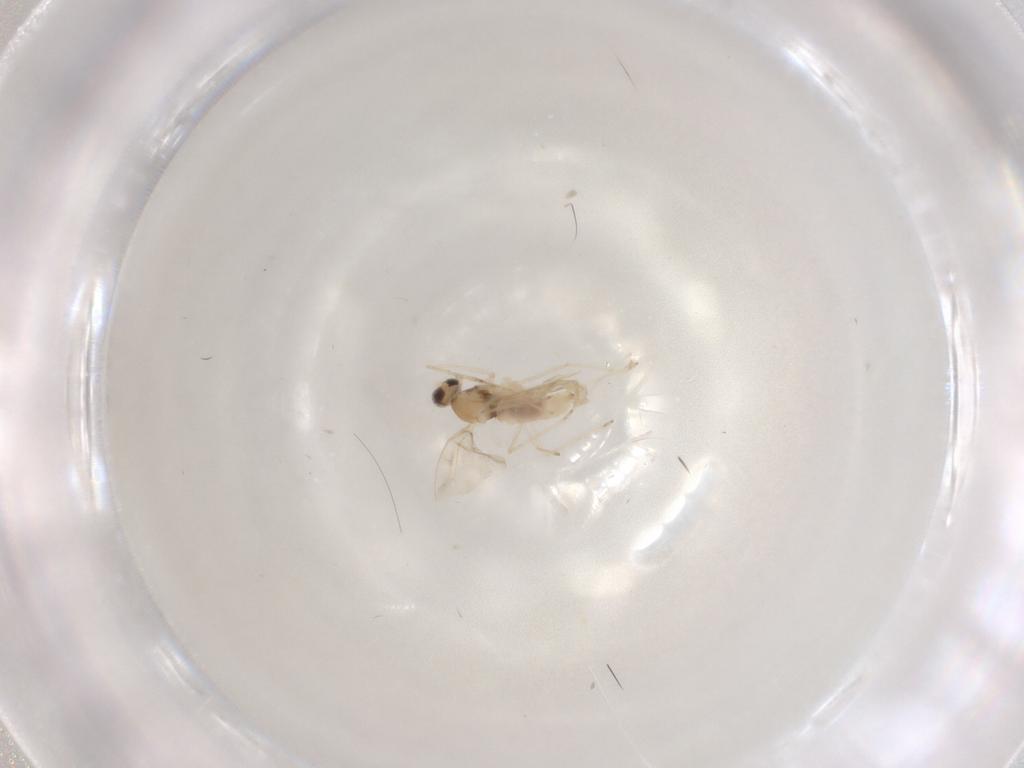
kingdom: Animalia
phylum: Arthropoda
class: Insecta
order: Diptera
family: Cecidomyiidae
